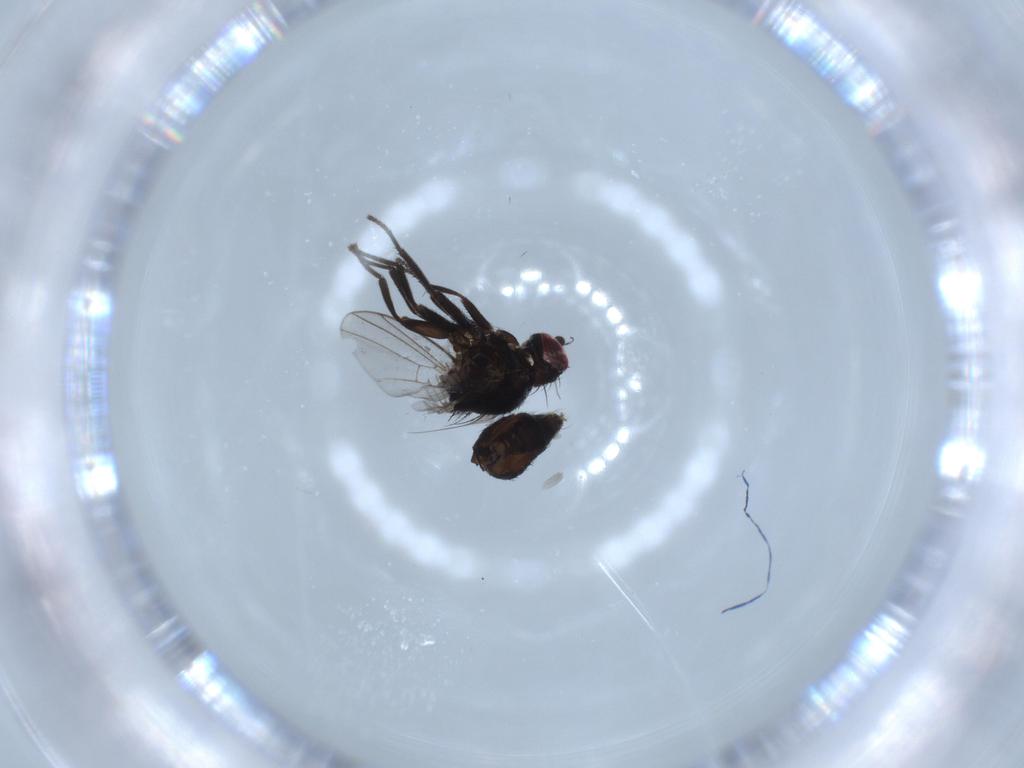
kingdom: Animalia
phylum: Arthropoda
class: Insecta
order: Diptera
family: Agromyzidae
